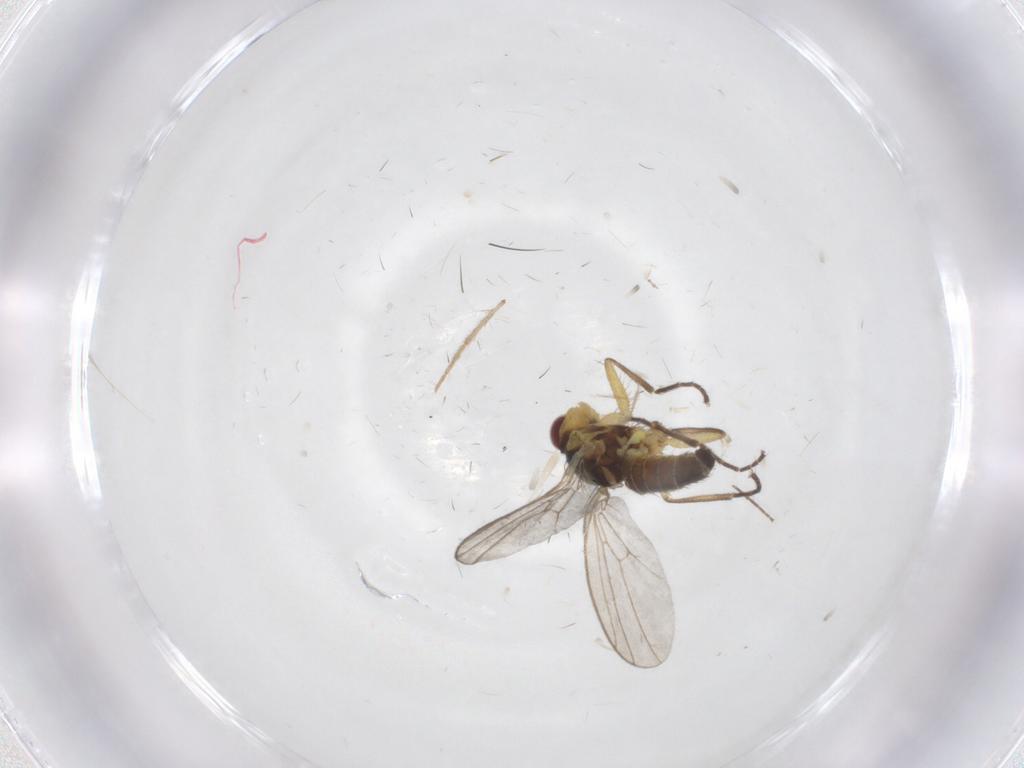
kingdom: Animalia
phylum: Arthropoda
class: Insecta
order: Diptera
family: Agromyzidae
